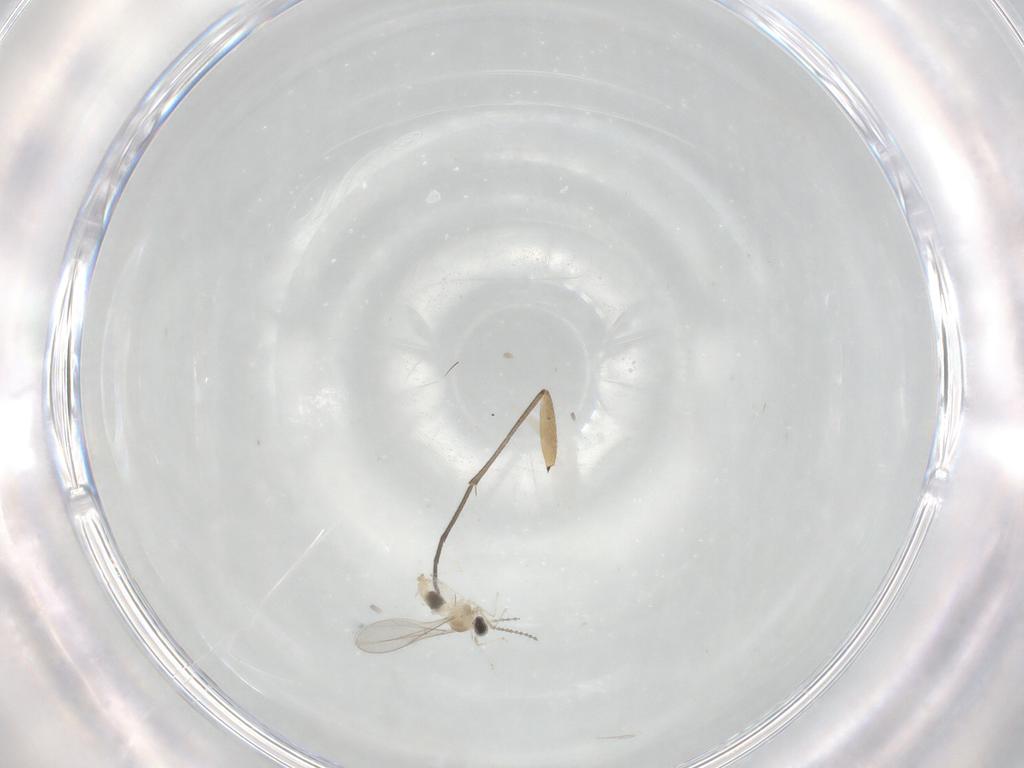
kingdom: Animalia
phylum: Arthropoda
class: Insecta
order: Diptera
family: Cecidomyiidae
